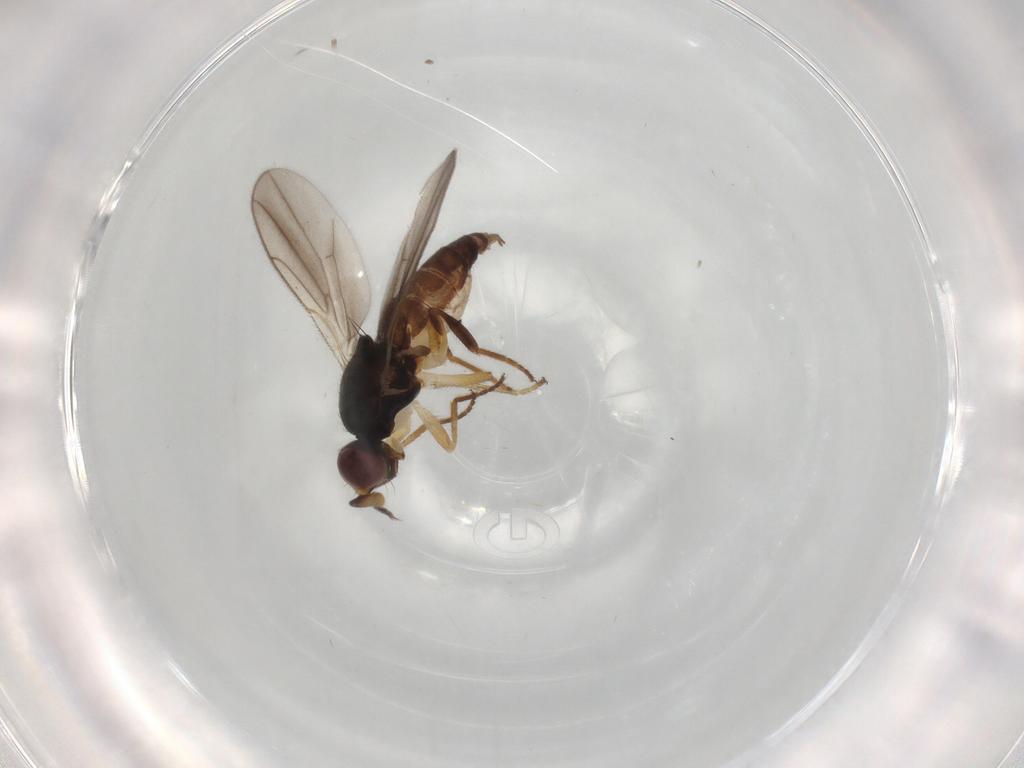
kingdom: Animalia
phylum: Arthropoda
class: Insecta
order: Diptera
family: Chloropidae
